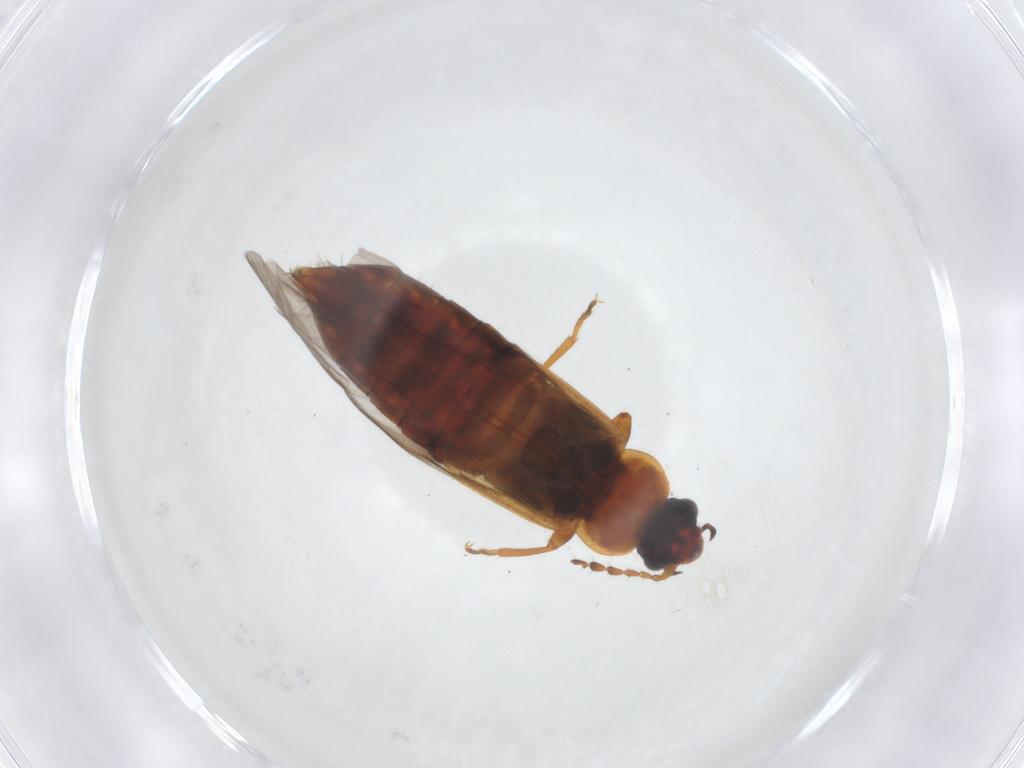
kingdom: Animalia
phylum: Arthropoda
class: Insecta
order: Coleoptera
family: Staphylinidae
